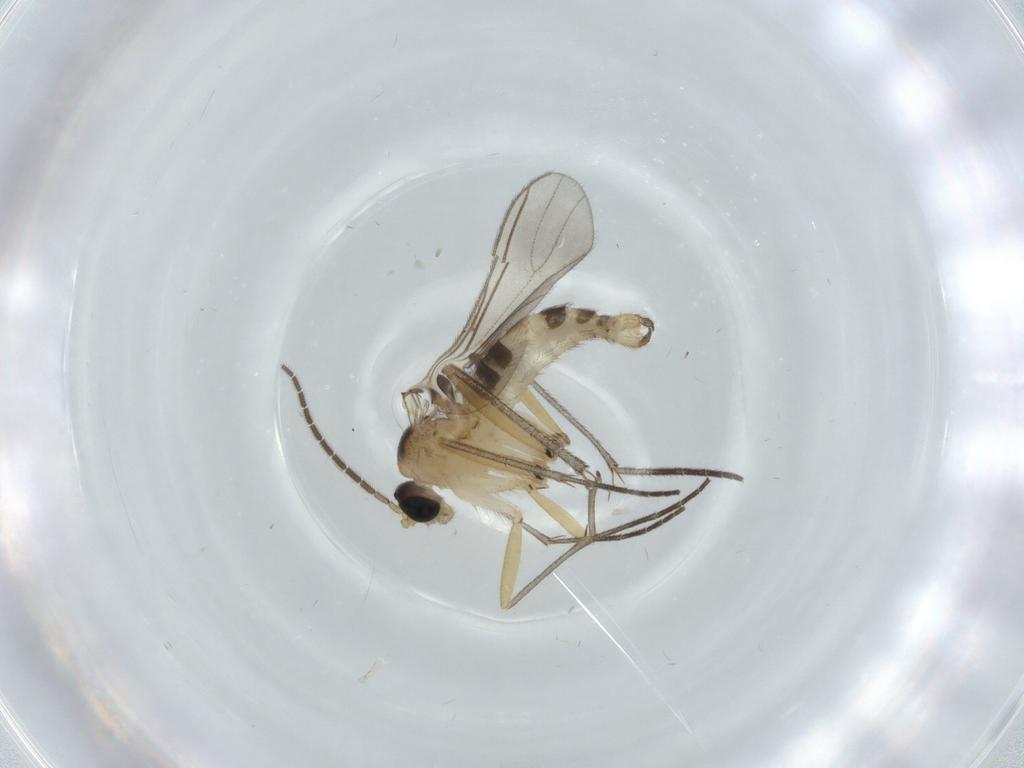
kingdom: Animalia
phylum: Arthropoda
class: Insecta
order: Diptera
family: Sciaridae
